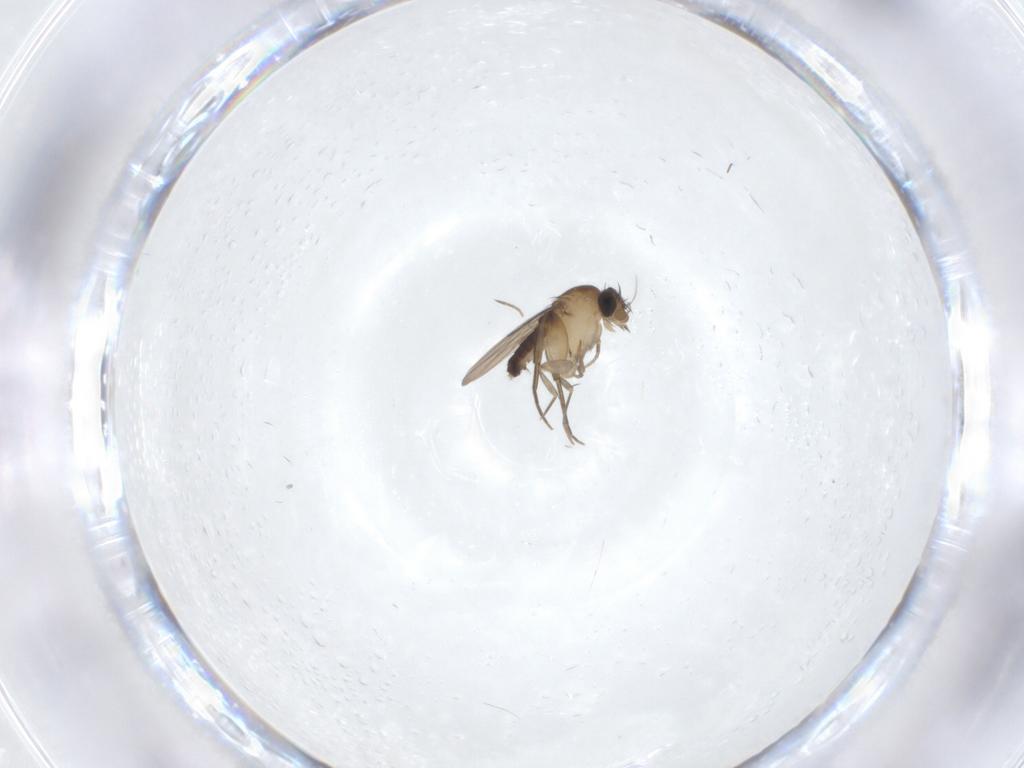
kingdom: Animalia
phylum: Arthropoda
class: Insecta
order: Diptera
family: Phoridae
